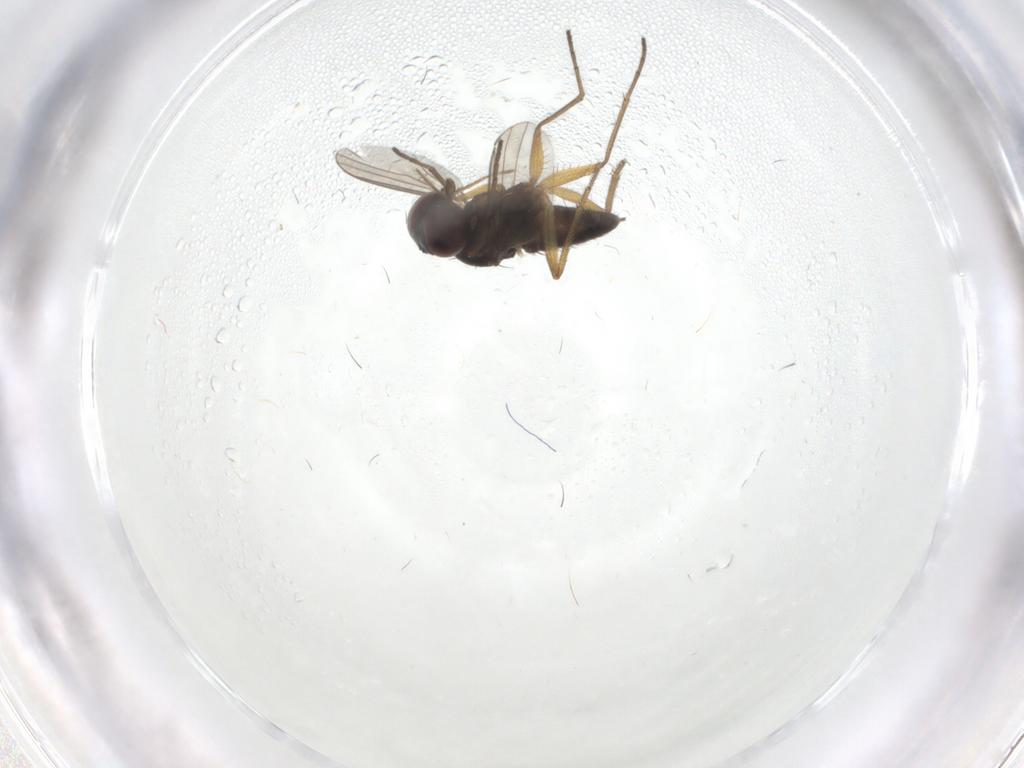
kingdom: Animalia
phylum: Arthropoda
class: Insecta
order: Diptera
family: Dolichopodidae
